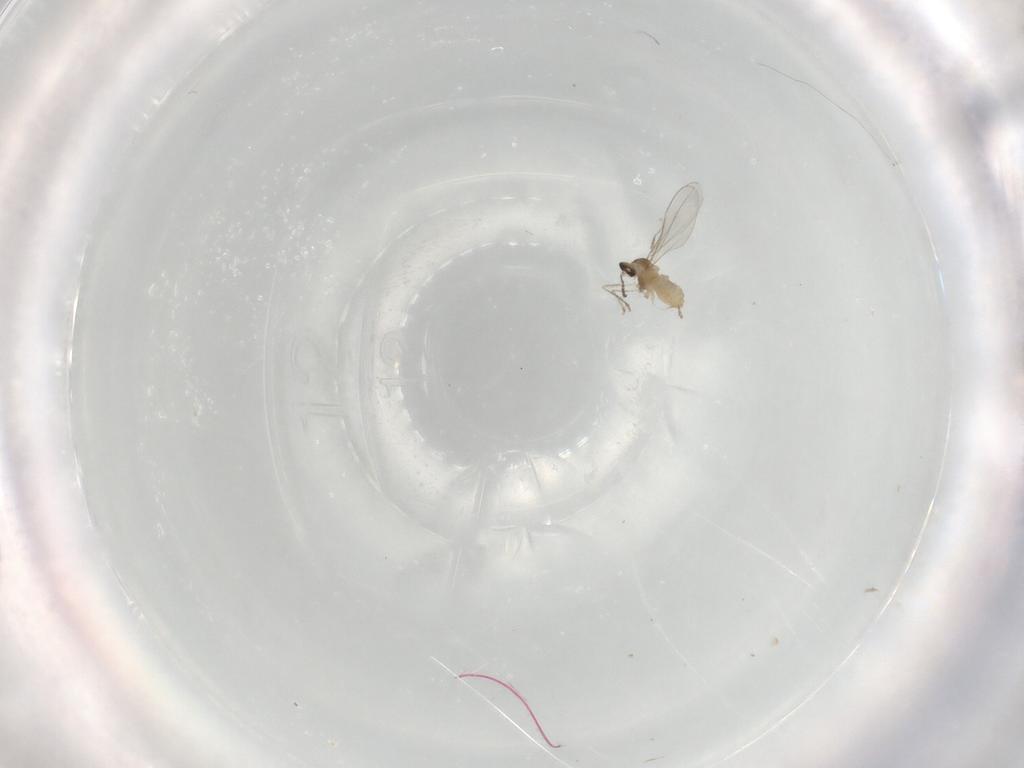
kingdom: Animalia
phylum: Arthropoda
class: Insecta
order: Diptera
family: Cecidomyiidae
